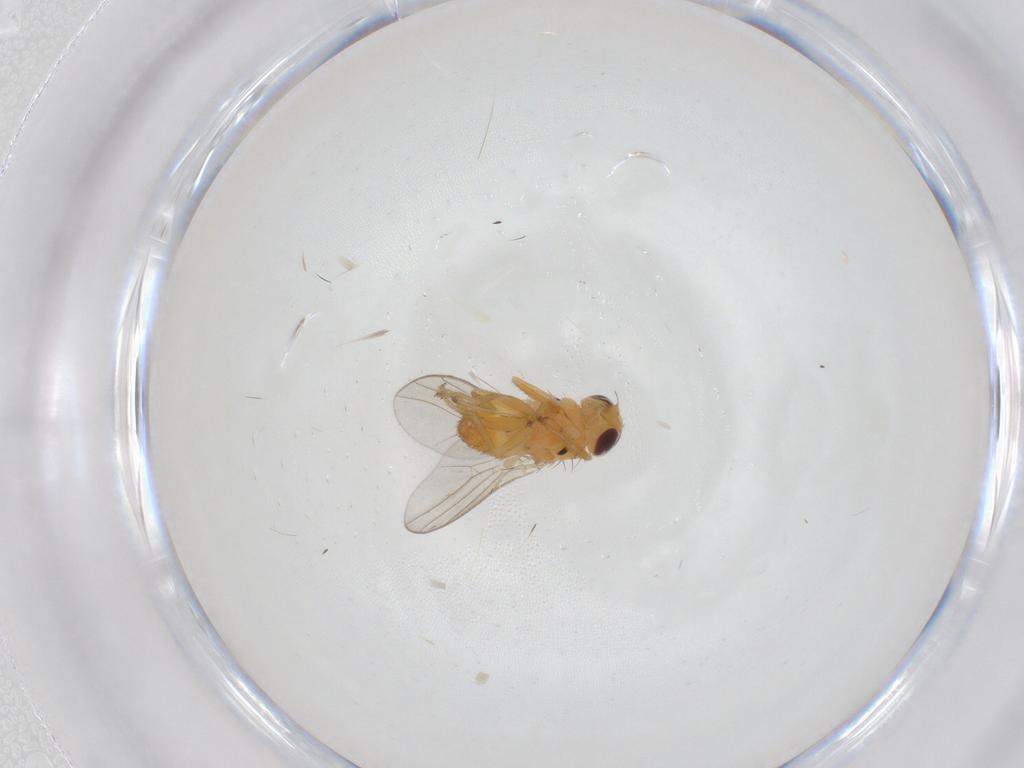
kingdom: Animalia
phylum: Arthropoda
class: Insecta
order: Diptera
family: Chloropidae
